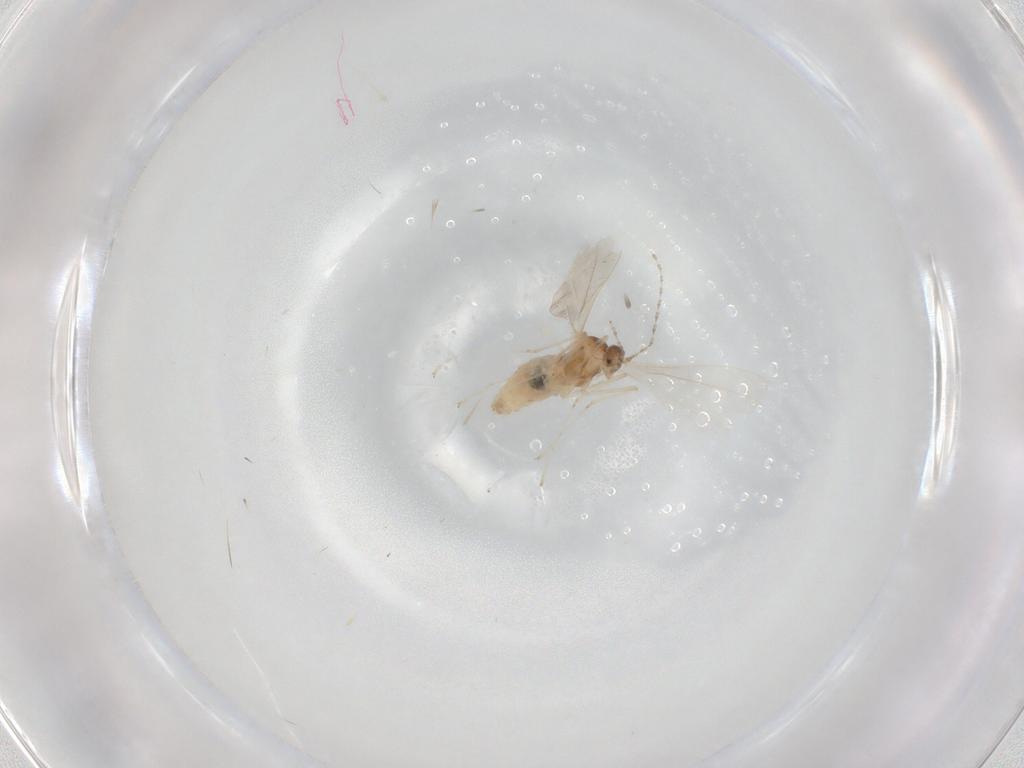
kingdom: Animalia
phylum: Arthropoda
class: Insecta
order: Diptera
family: Cecidomyiidae
